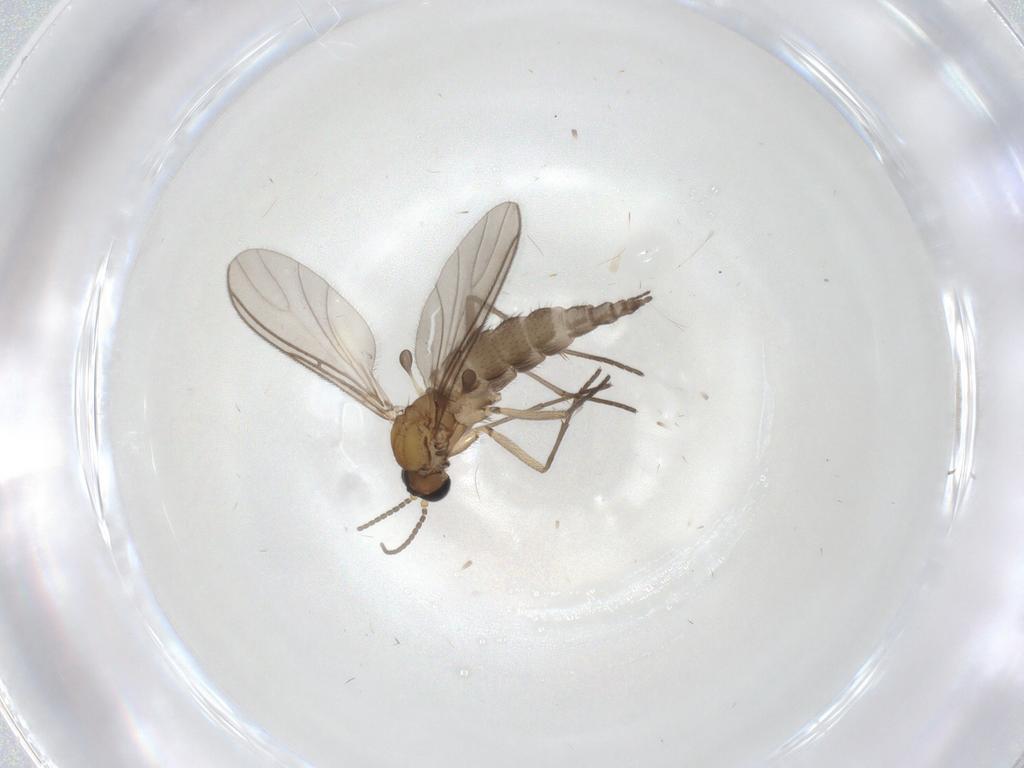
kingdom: Animalia
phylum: Arthropoda
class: Insecta
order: Diptera
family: Sciaridae
